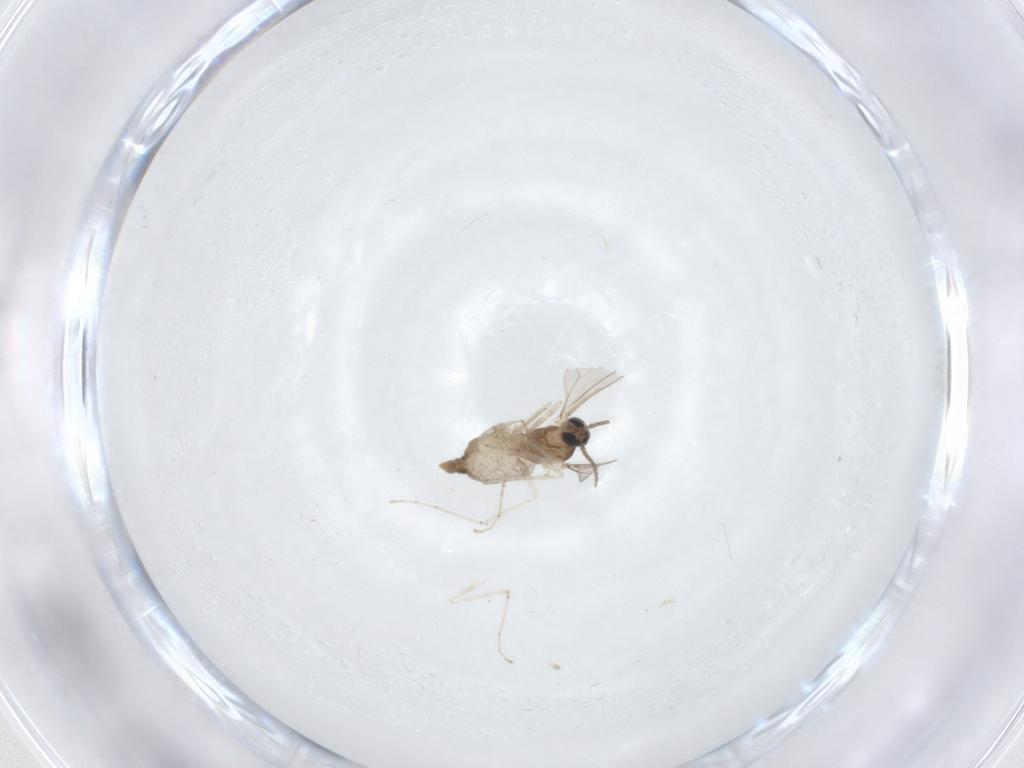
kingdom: Animalia
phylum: Arthropoda
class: Insecta
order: Diptera
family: Cecidomyiidae
